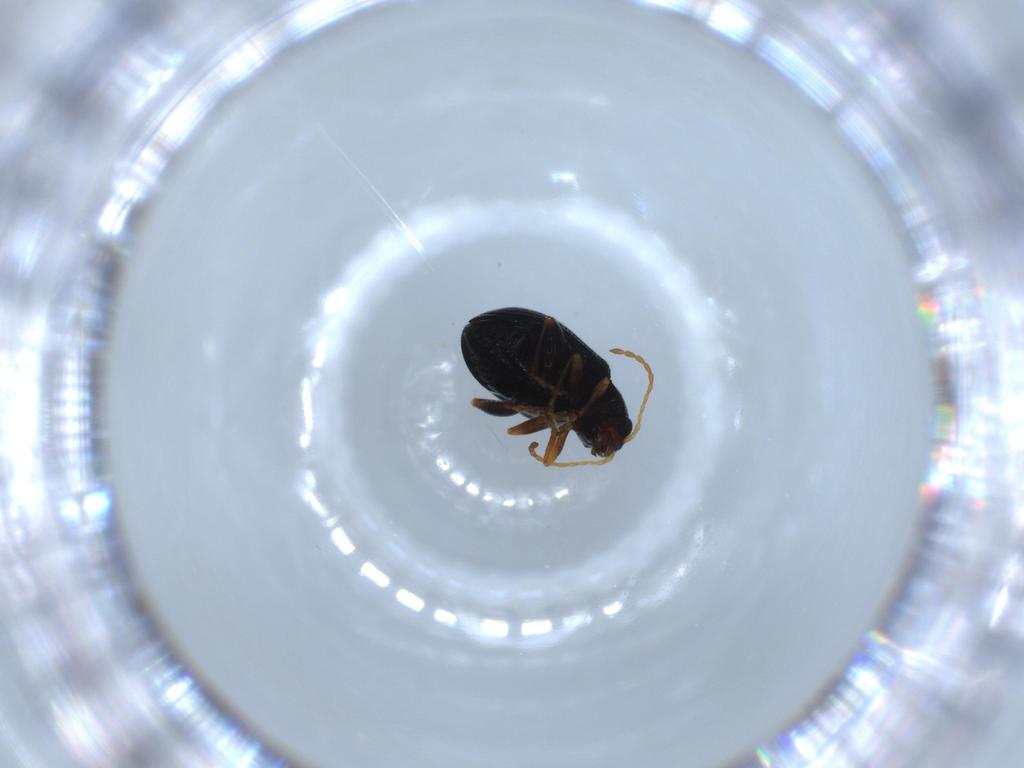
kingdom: Animalia
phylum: Arthropoda
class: Insecta
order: Coleoptera
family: Chrysomelidae
